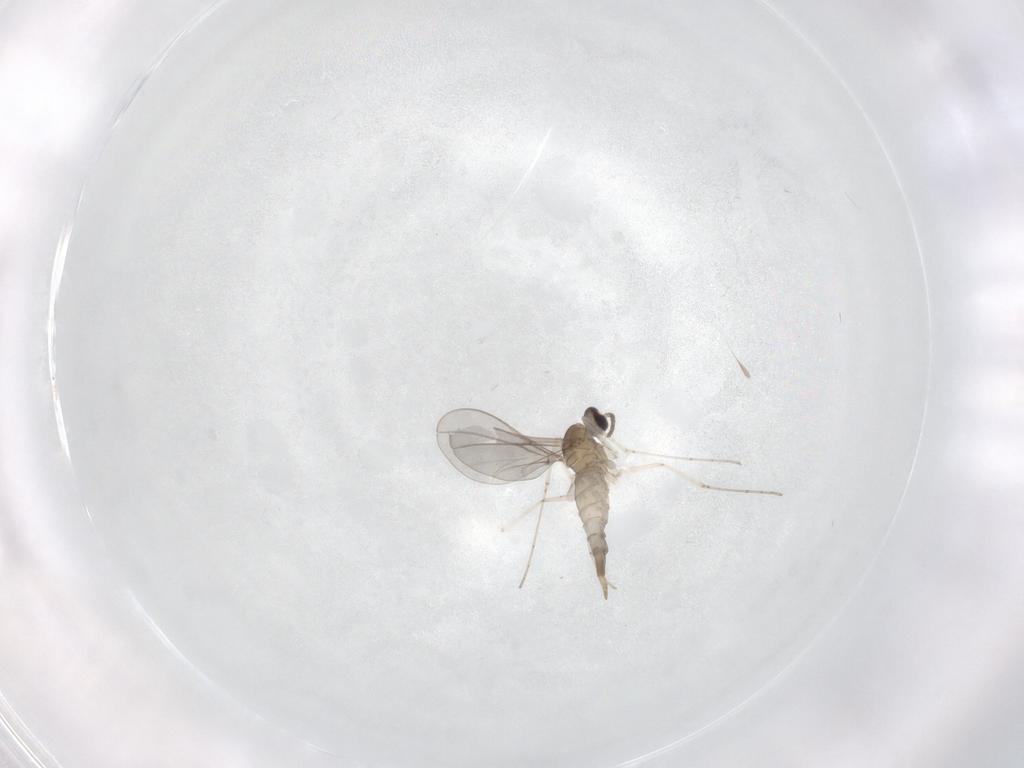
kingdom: Animalia
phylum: Arthropoda
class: Insecta
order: Diptera
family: Cecidomyiidae
